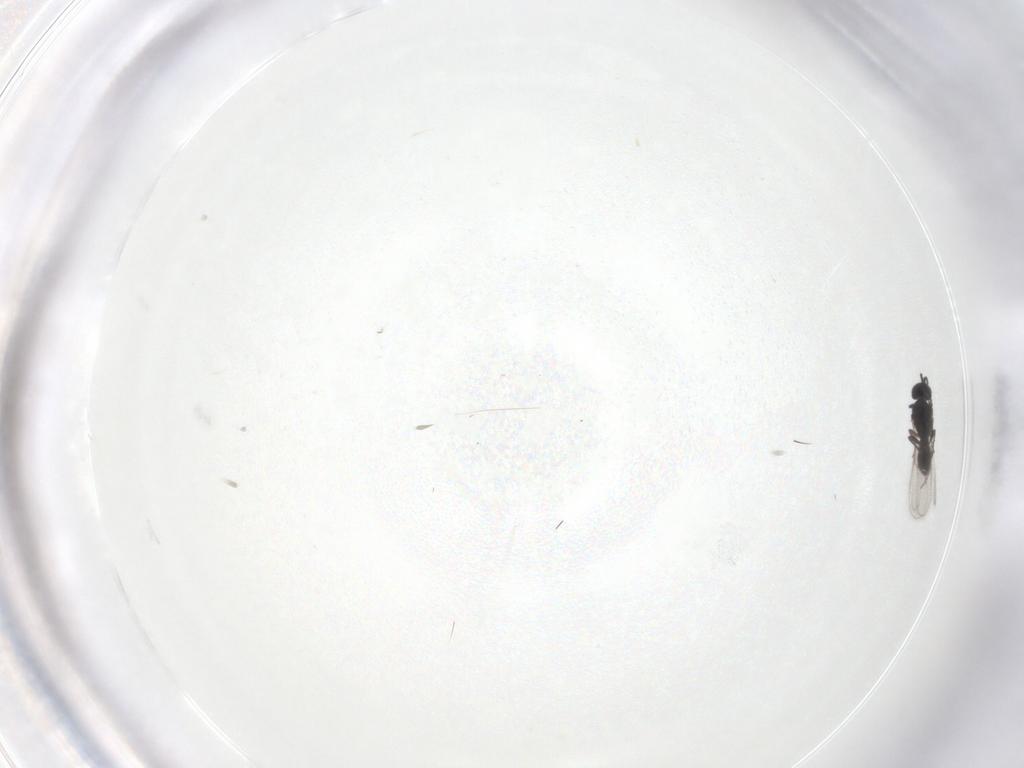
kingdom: Animalia
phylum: Arthropoda
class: Insecta
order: Hymenoptera
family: Scelionidae
